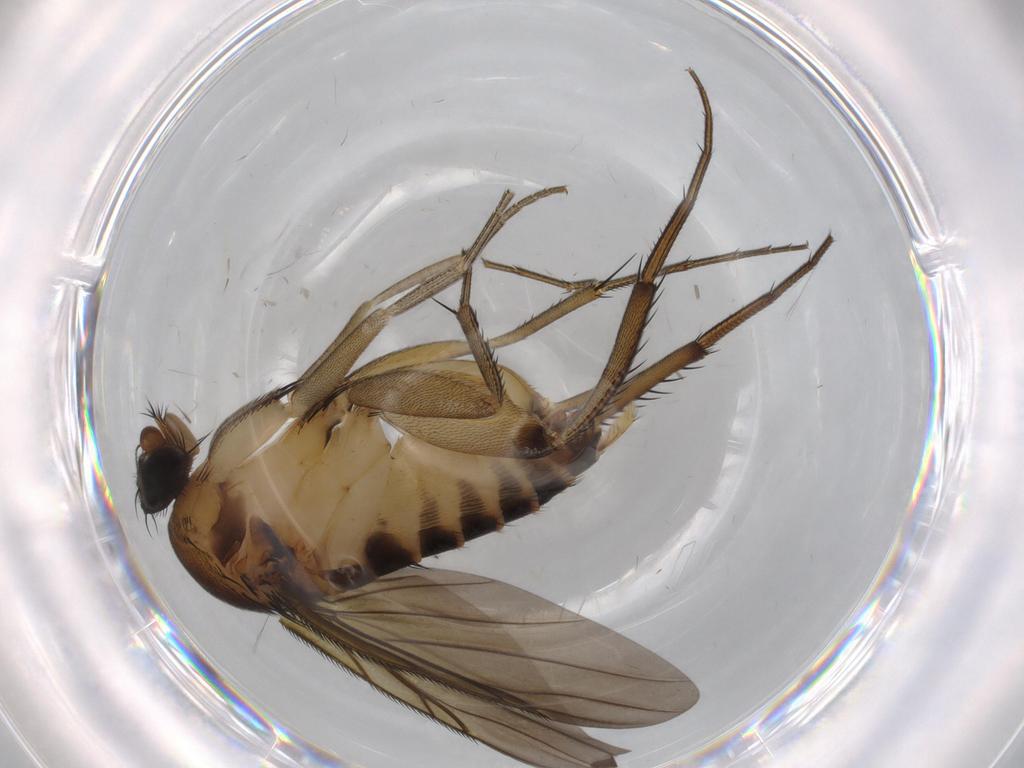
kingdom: Animalia
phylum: Arthropoda
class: Insecta
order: Diptera
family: Phoridae
